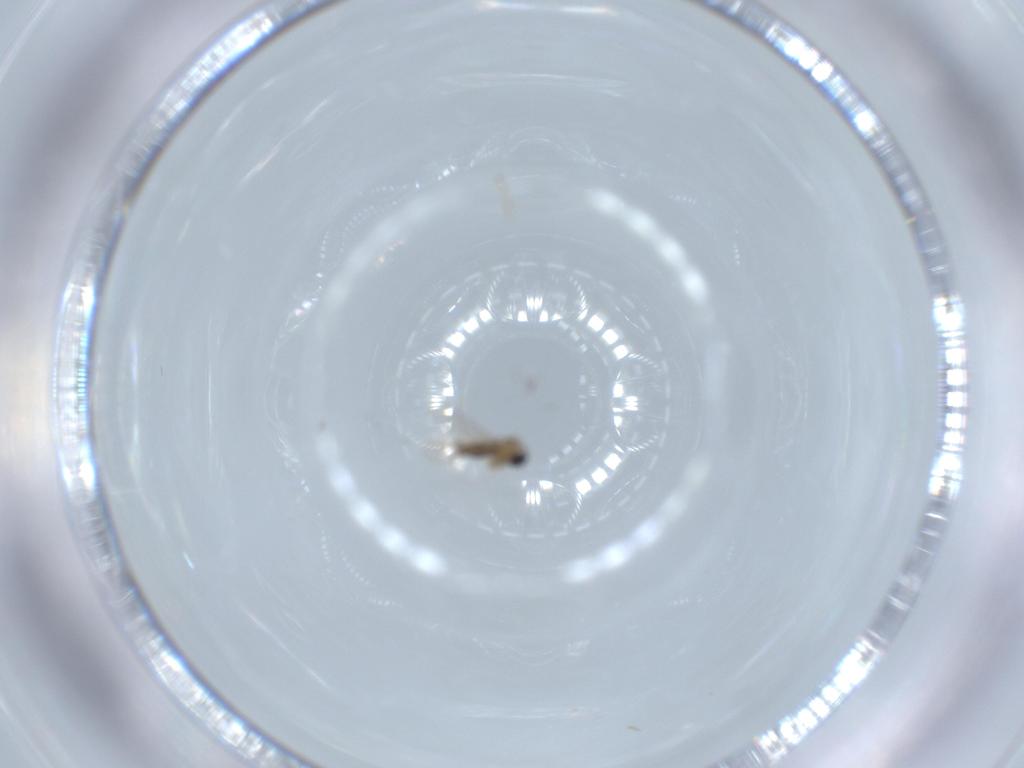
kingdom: Animalia
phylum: Arthropoda
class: Insecta
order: Diptera
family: Cecidomyiidae
